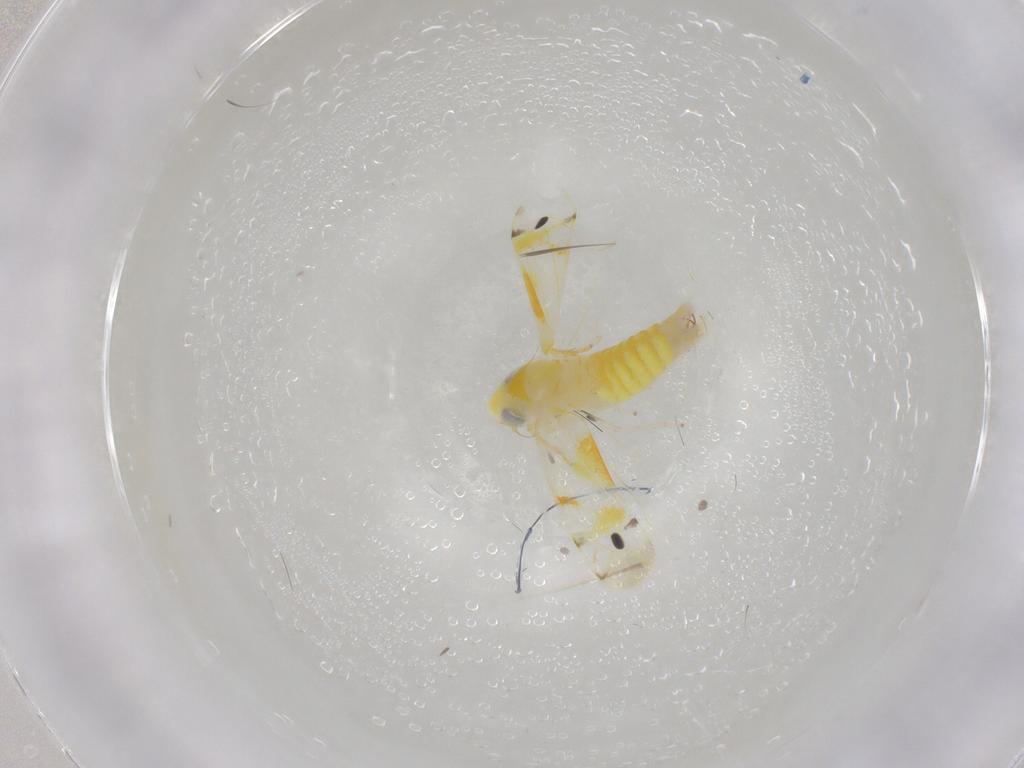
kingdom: Animalia
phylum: Arthropoda
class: Insecta
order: Hemiptera
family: Cicadellidae
